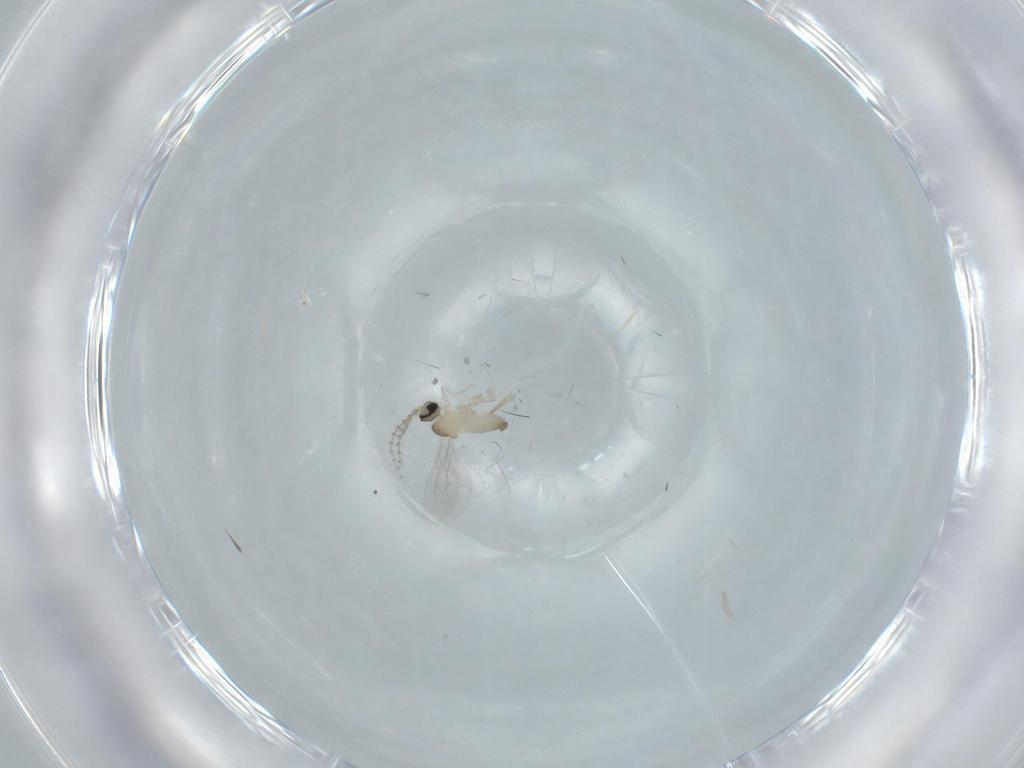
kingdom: Animalia
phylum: Arthropoda
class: Insecta
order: Diptera
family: Cecidomyiidae
